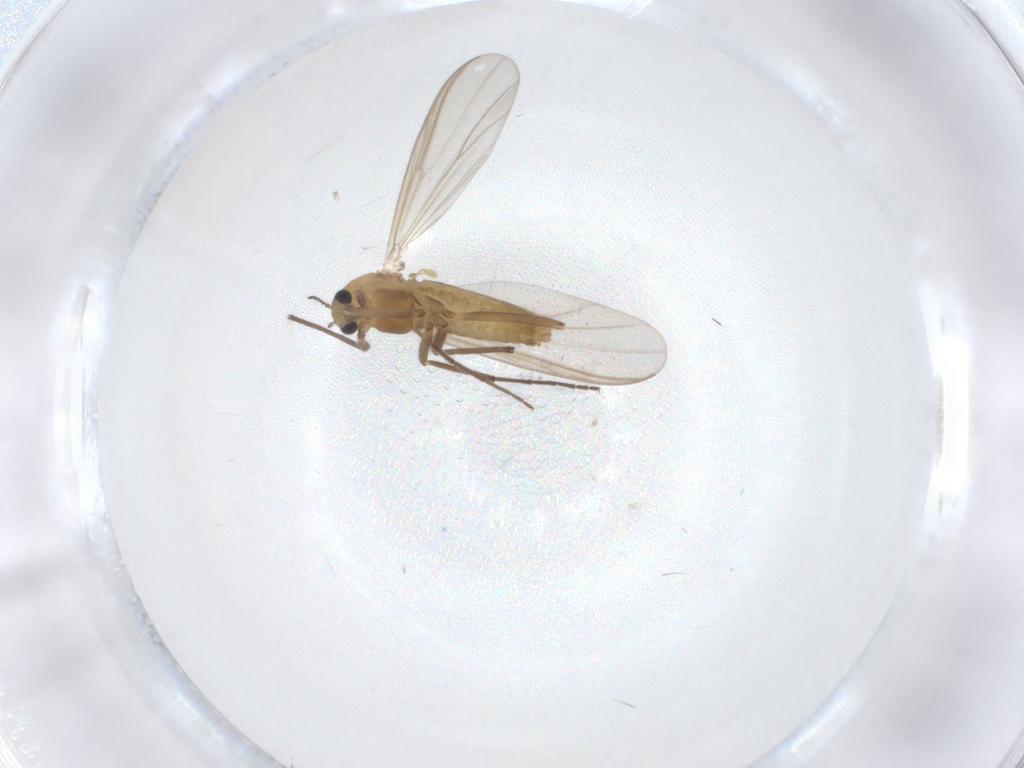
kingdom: Animalia
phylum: Arthropoda
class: Insecta
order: Diptera
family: Chironomidae
